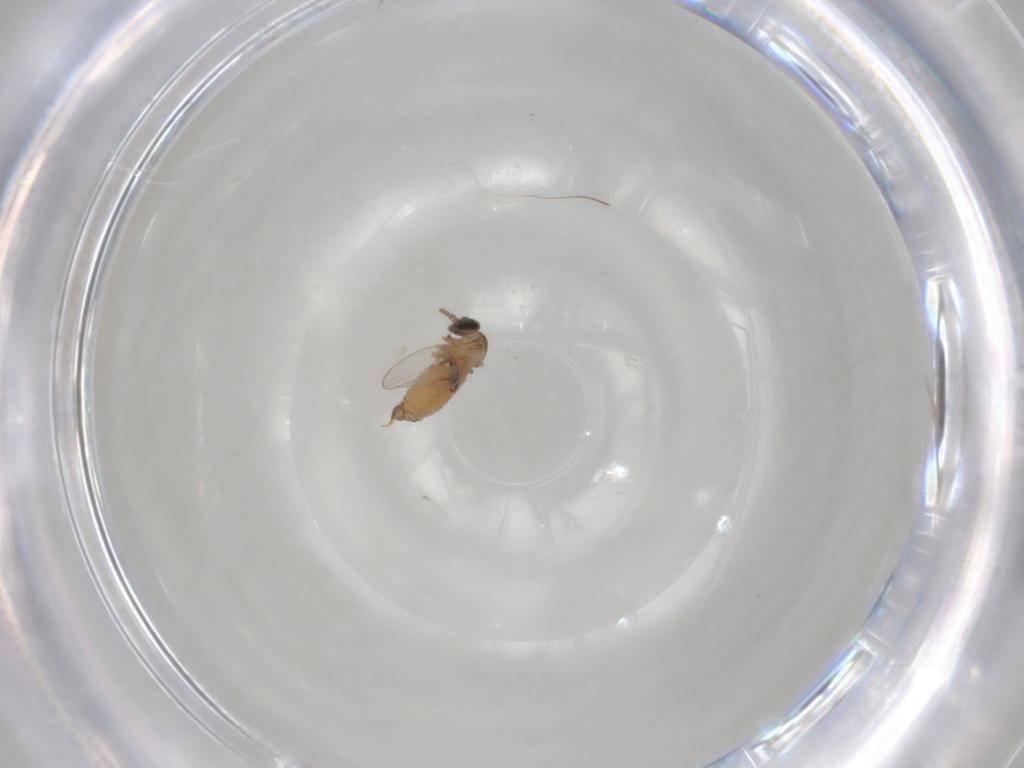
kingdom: Animalia
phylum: Arthropoda
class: Insecta
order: Diptera
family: Psychodidae
